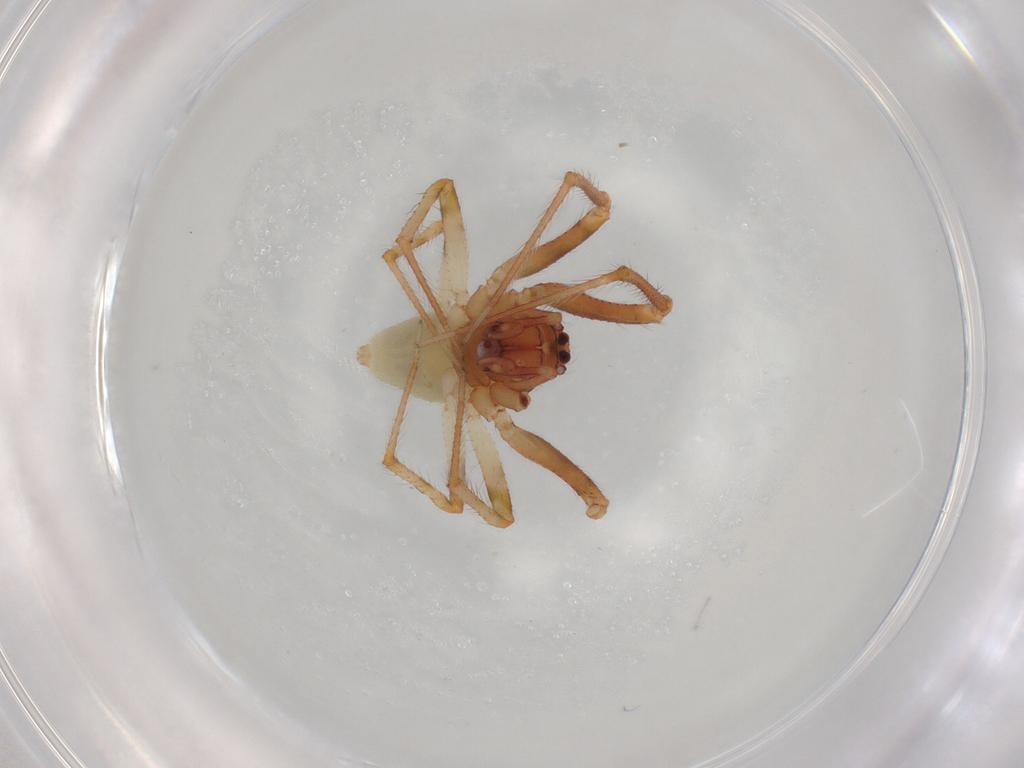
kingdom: Animalia
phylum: Arthropoda
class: Arachnida
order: Araneae
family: Theridiidae
